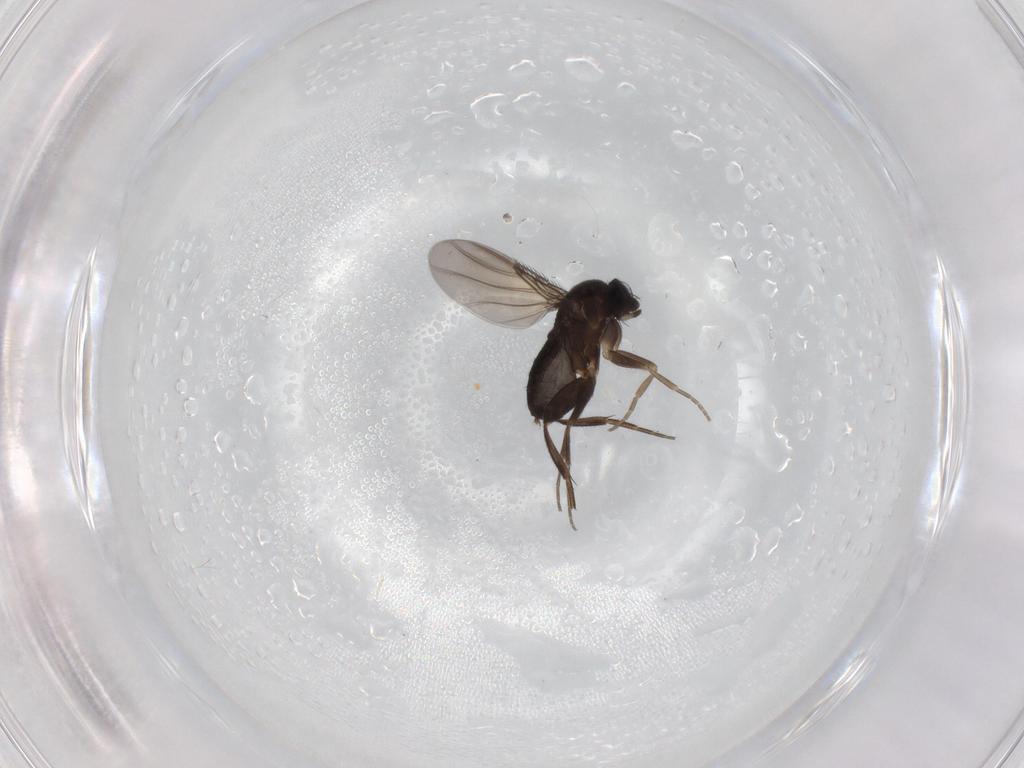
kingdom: Animalia
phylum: Arthropoda
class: Insecta
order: Diptera
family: Phoridae
